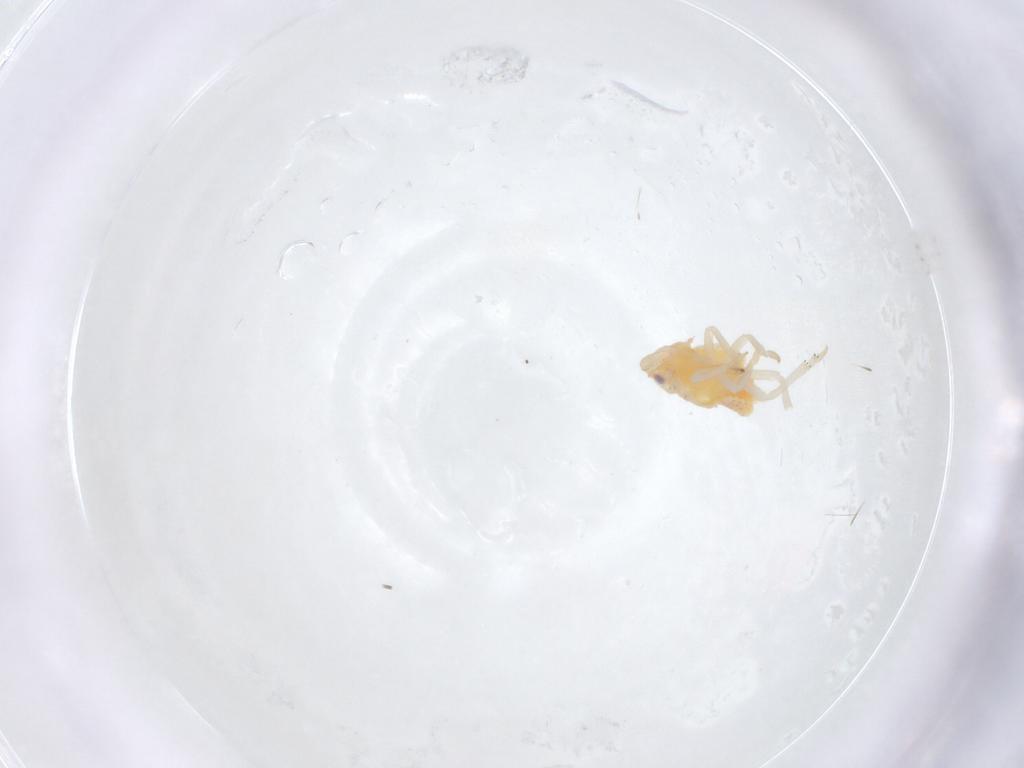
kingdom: Animalia
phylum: Arthropoda
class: Insecta
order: Hemiptera
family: Flatidae
